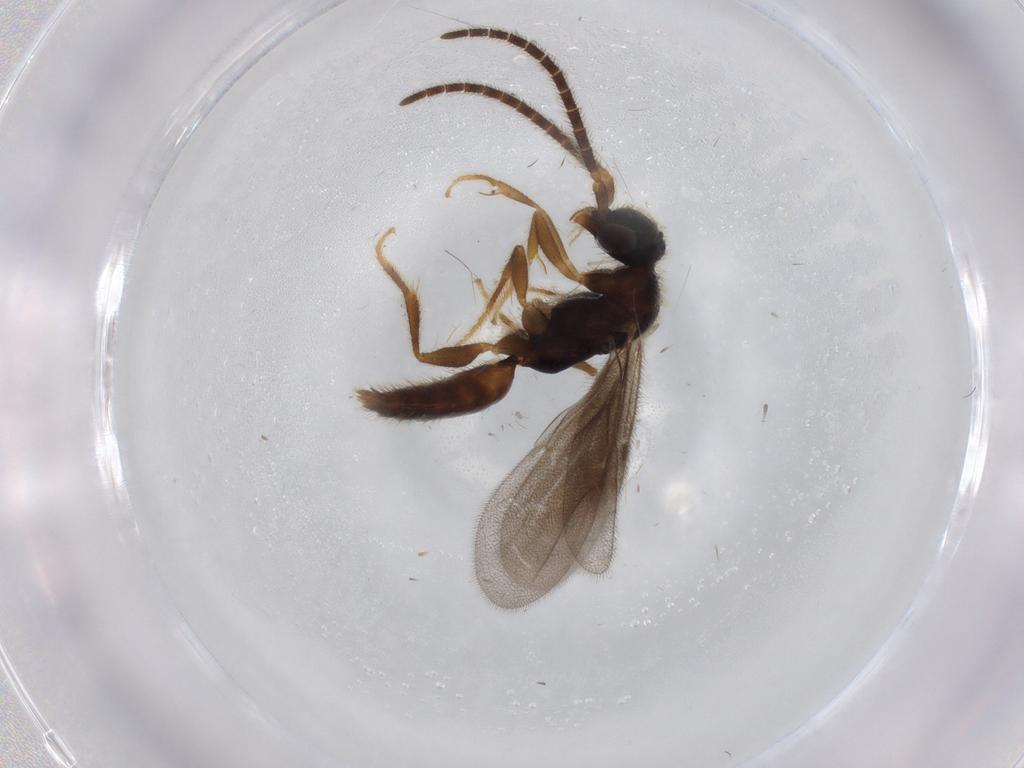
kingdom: Animalia
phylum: Arthropoda
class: Insecta
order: Hymenoptera
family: Bethylidae
